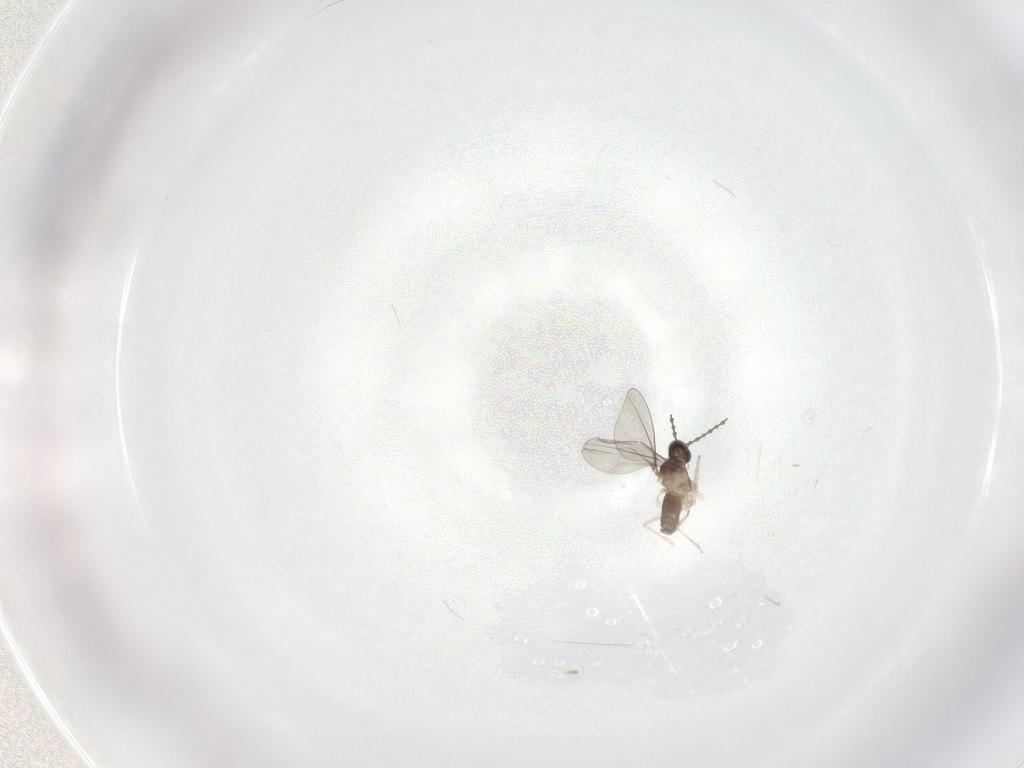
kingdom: Animalia
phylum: Arthropoda
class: Insecta
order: Diptera
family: Cecidomyiidae
